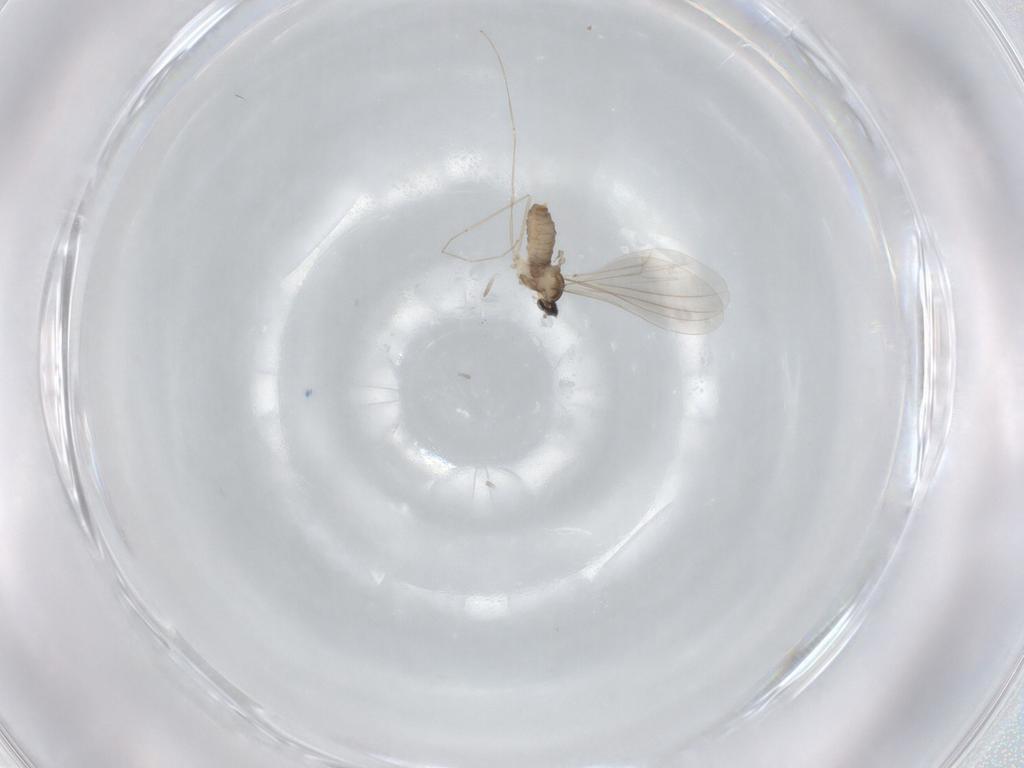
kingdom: Animalia
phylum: Arthropoda
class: Insecta
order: Diptera
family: Cecidomyiidae
